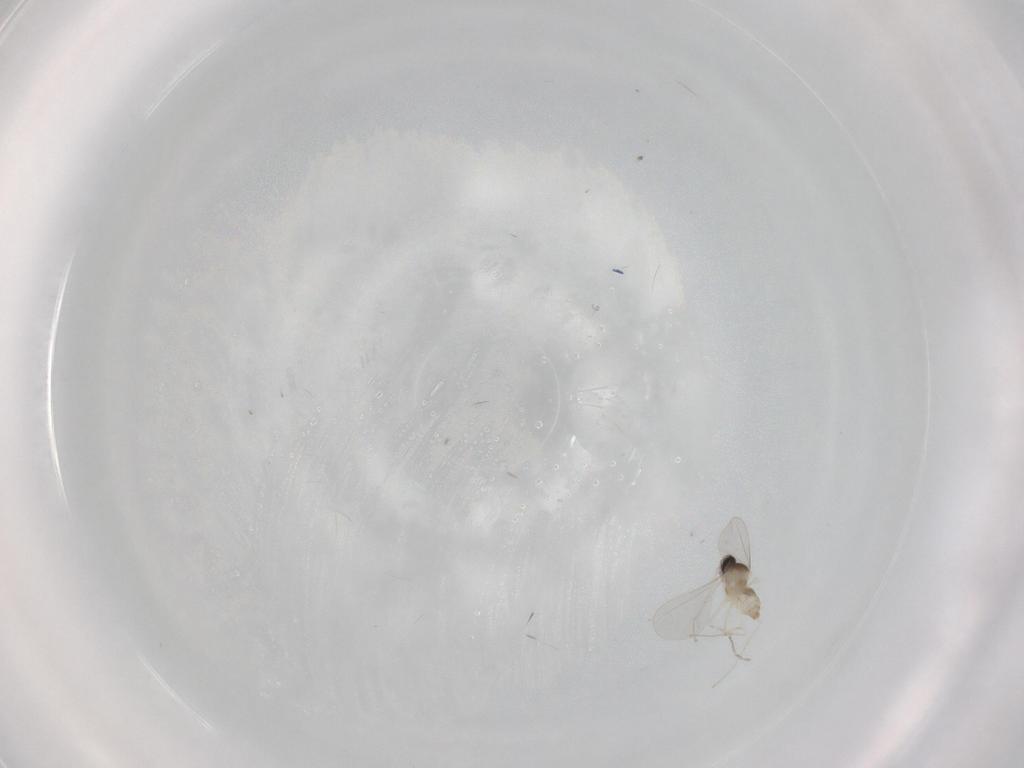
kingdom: Animalia
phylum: Arthropoda
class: Insecta
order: Diptera
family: Cecidomyiidae
